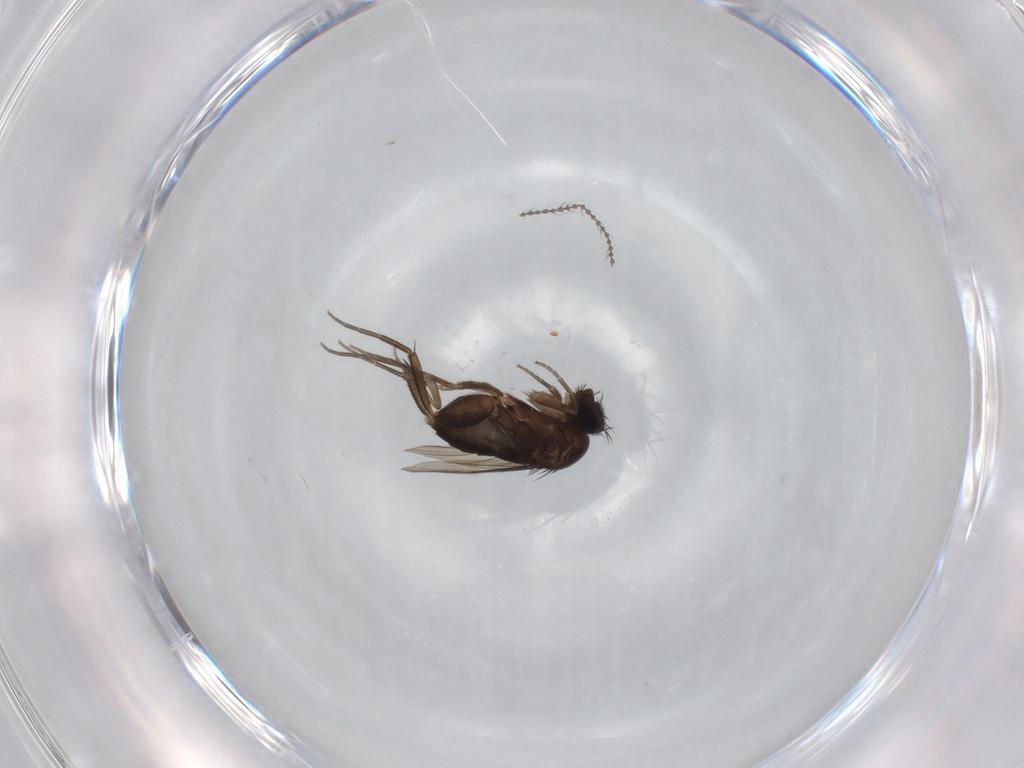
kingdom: Animalia
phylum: Arthropoda
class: Insecta
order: Diptera
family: Cecidomyiidae
